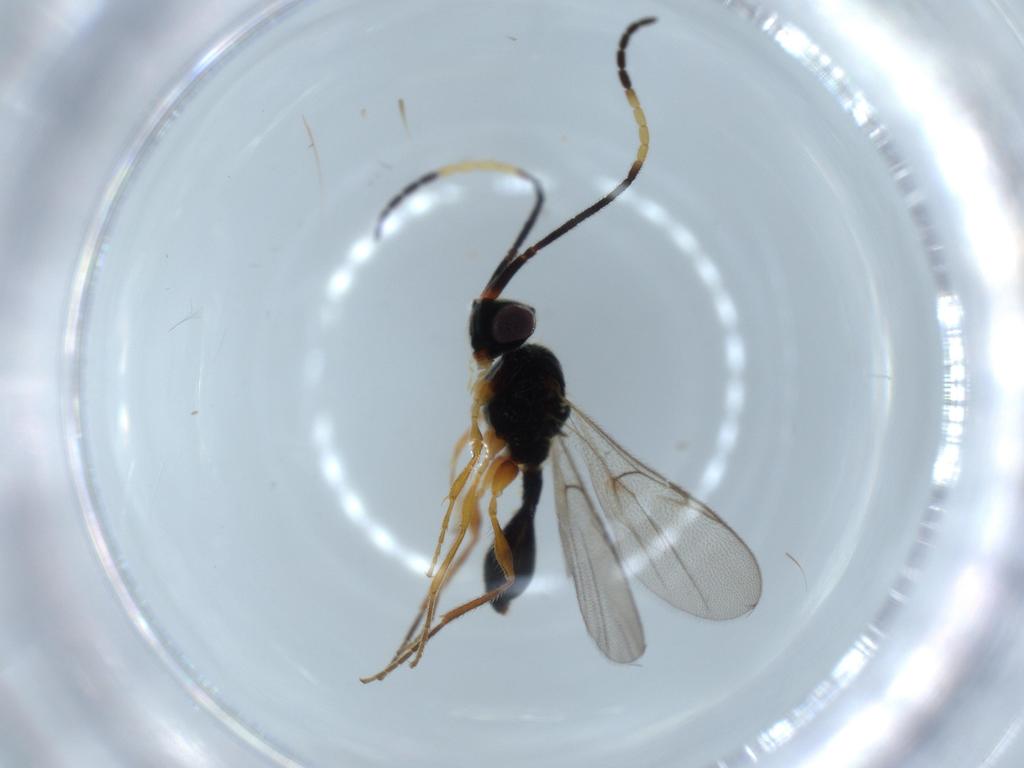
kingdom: Animalia
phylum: Arthropoda
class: Insecta
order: Hymenoptera
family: Diapriidae
